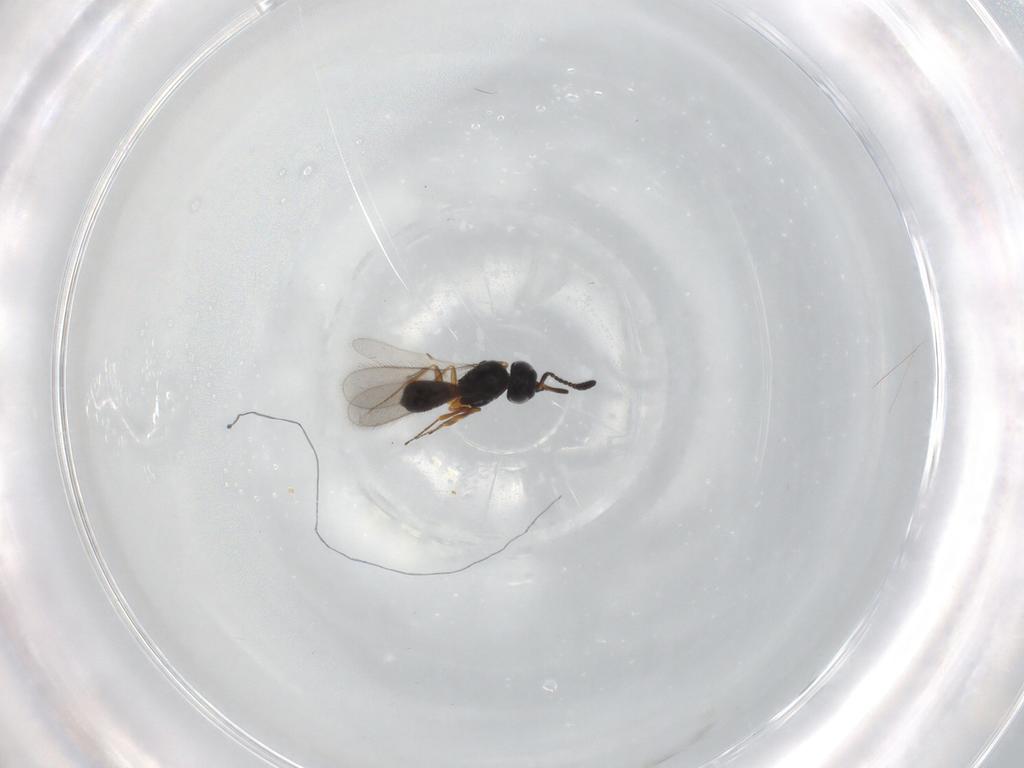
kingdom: Animalia
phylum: Arthropoda
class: Insecta
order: Hymenoptera
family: Scelionidae
